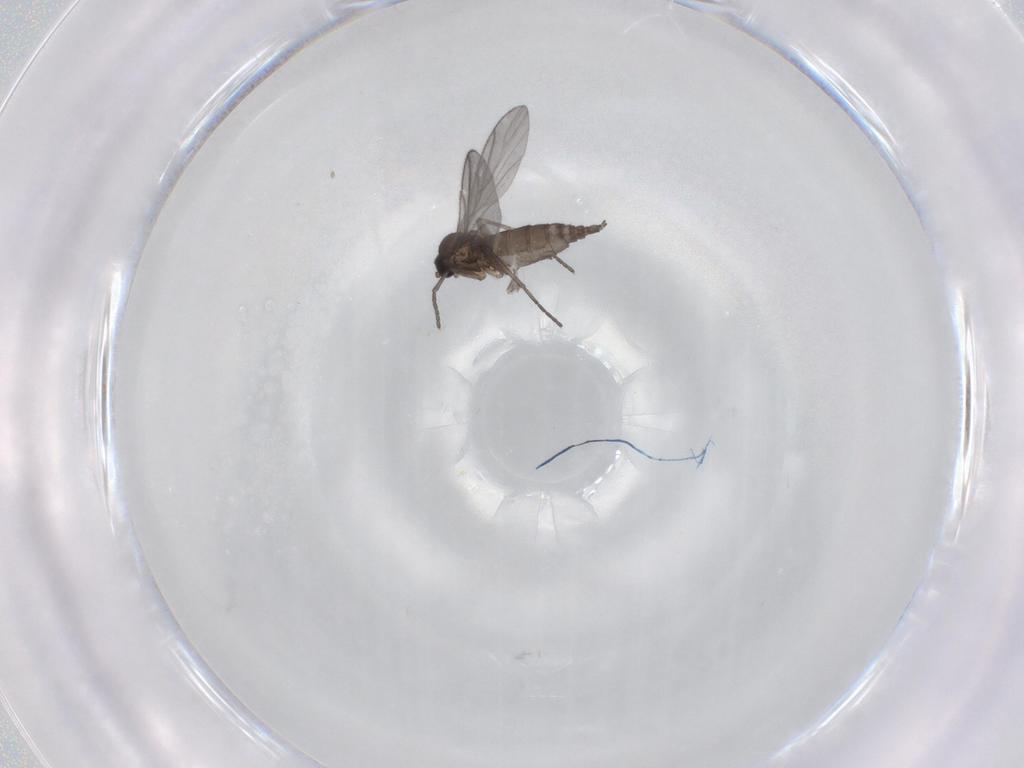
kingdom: Animalia
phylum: Arthropoda
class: Insecta
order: Diptera
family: Sciaridae
